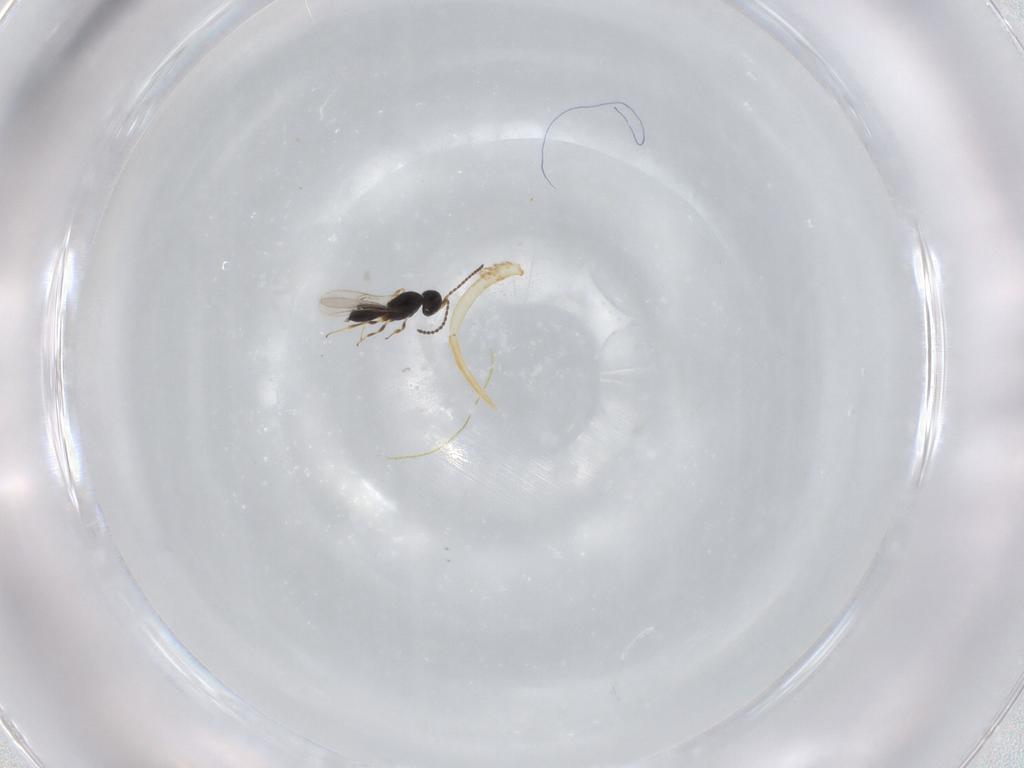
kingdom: Animalia
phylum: Arthropoda
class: Insecta
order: Hymenoptera
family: Scelionidae
